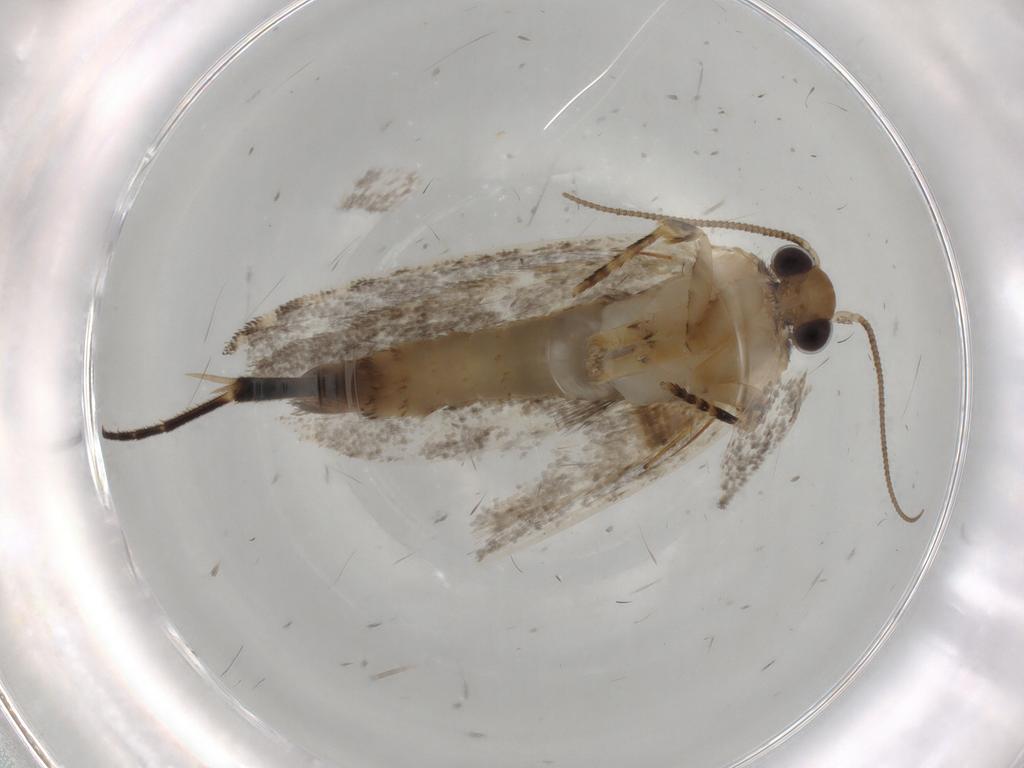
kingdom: Animalia
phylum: Arthropoda
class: Insecta
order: Lepidoptera
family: Tineidae
